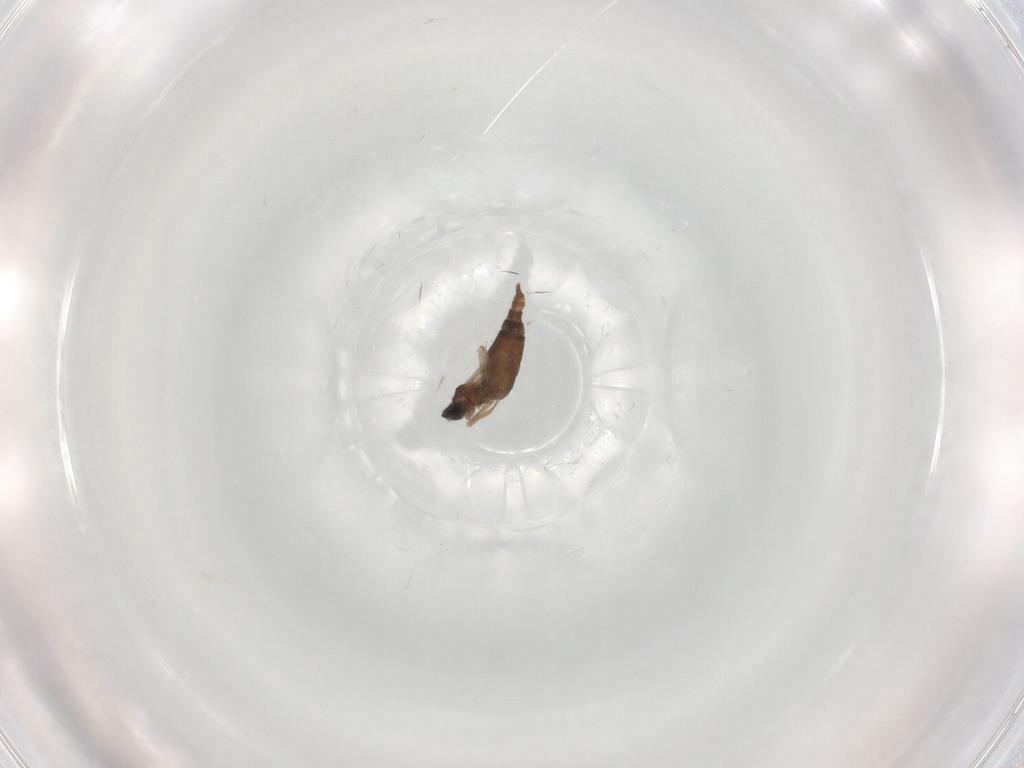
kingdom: Animalia
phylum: Arthropoda
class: Insecta
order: Diptera
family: Cecidomyiidae
